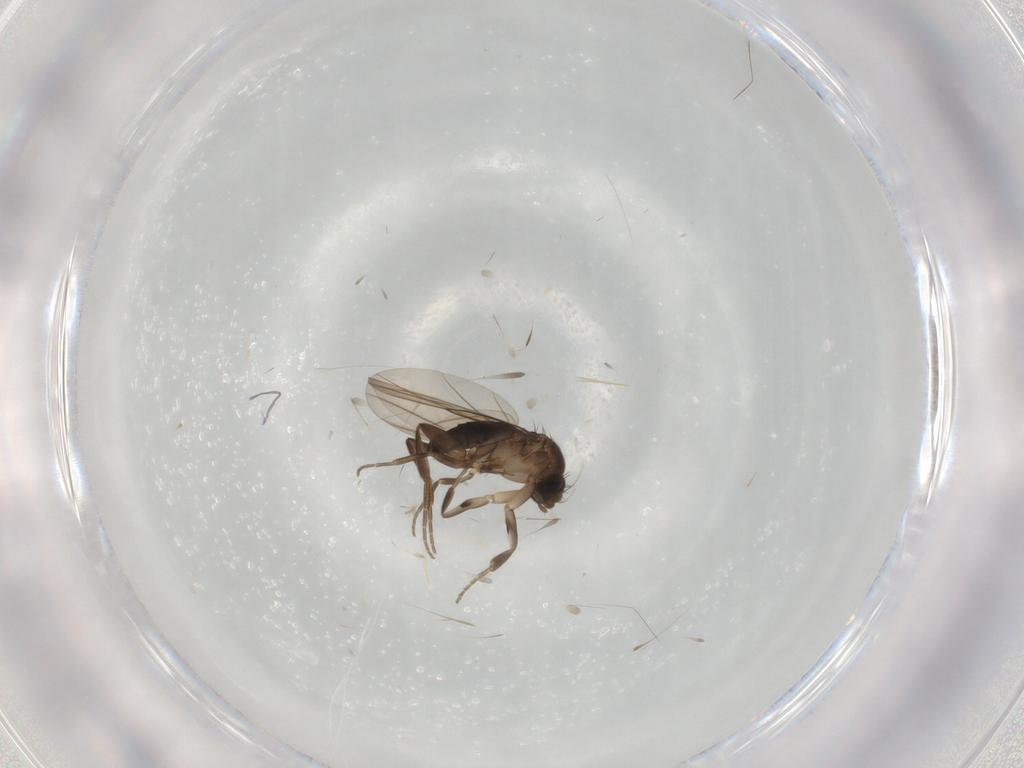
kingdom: Animalia
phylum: Arthropoda
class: Insecta
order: Diptera
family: Phoridae
